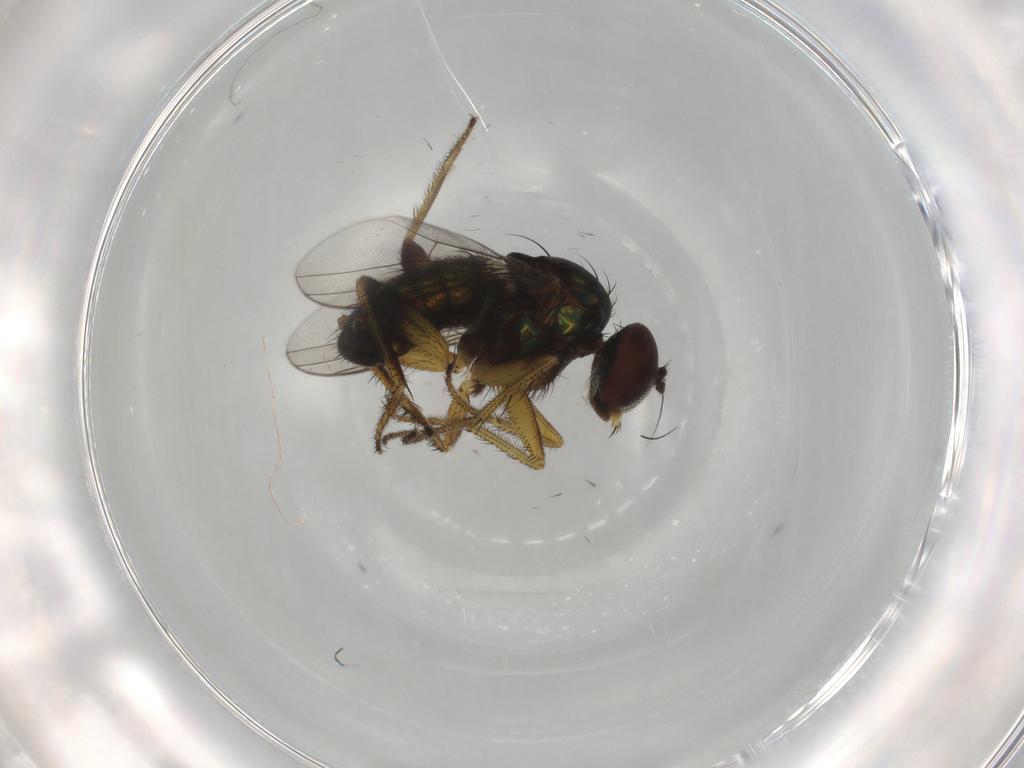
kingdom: Animalia
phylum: Arthropoda
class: Insecta
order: Diptera
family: Dolichopodidae
